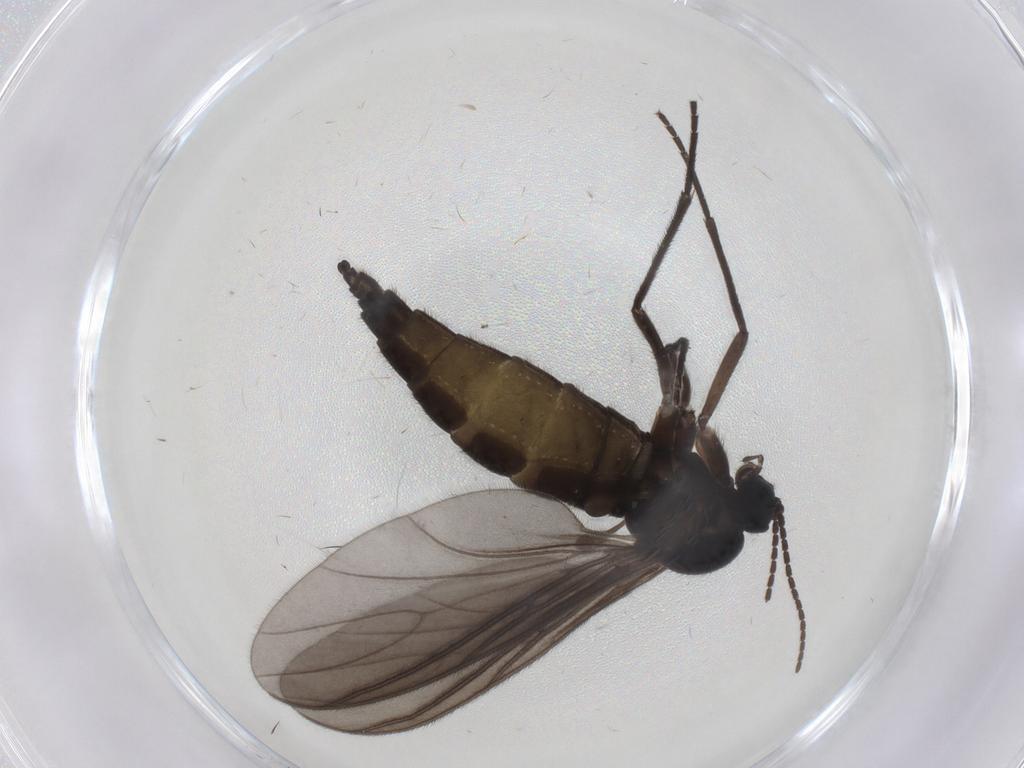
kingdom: Animalia
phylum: Arthropoda
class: Insecta
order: Diptera
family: Sciaridae
